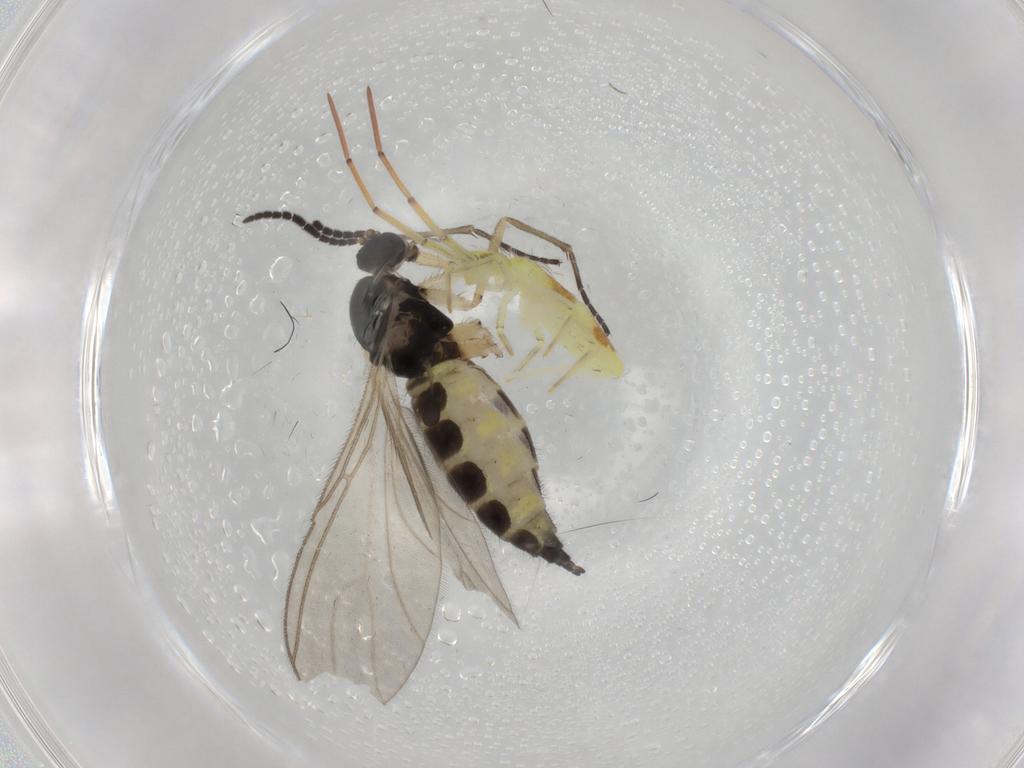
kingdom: Animalia
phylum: Arthropoda
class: Insecta
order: Diptera
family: Sciaridae
